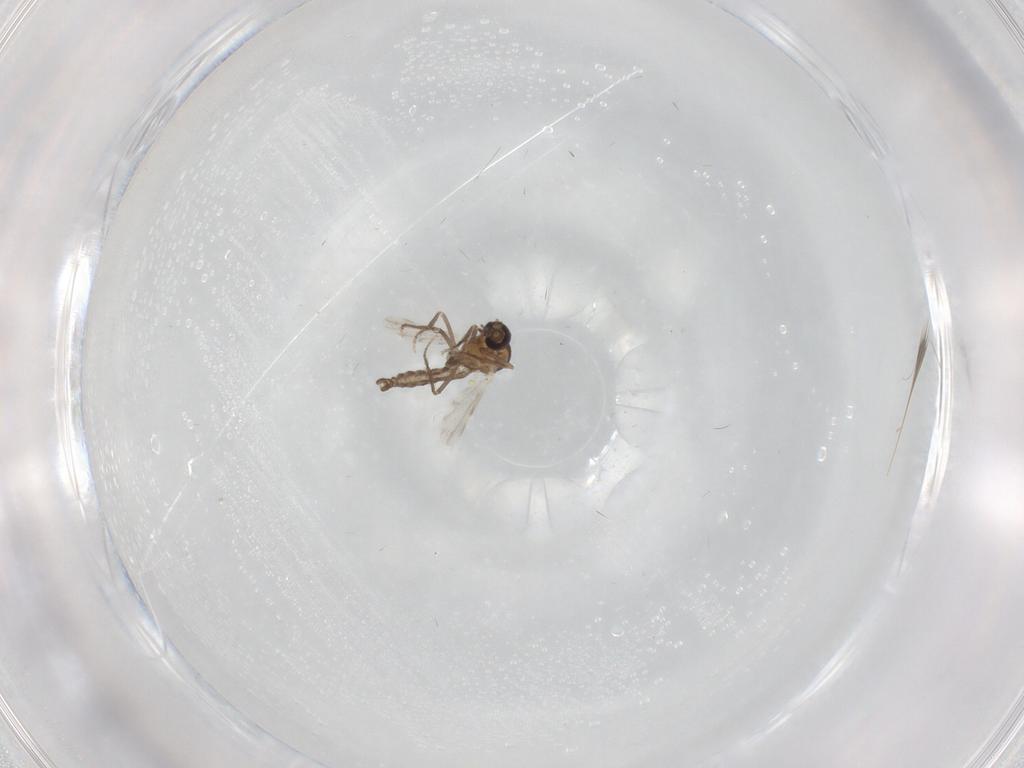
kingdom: Animalia
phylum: Arthropoda
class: Insecta
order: Diptera
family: Ceratopogonidae
